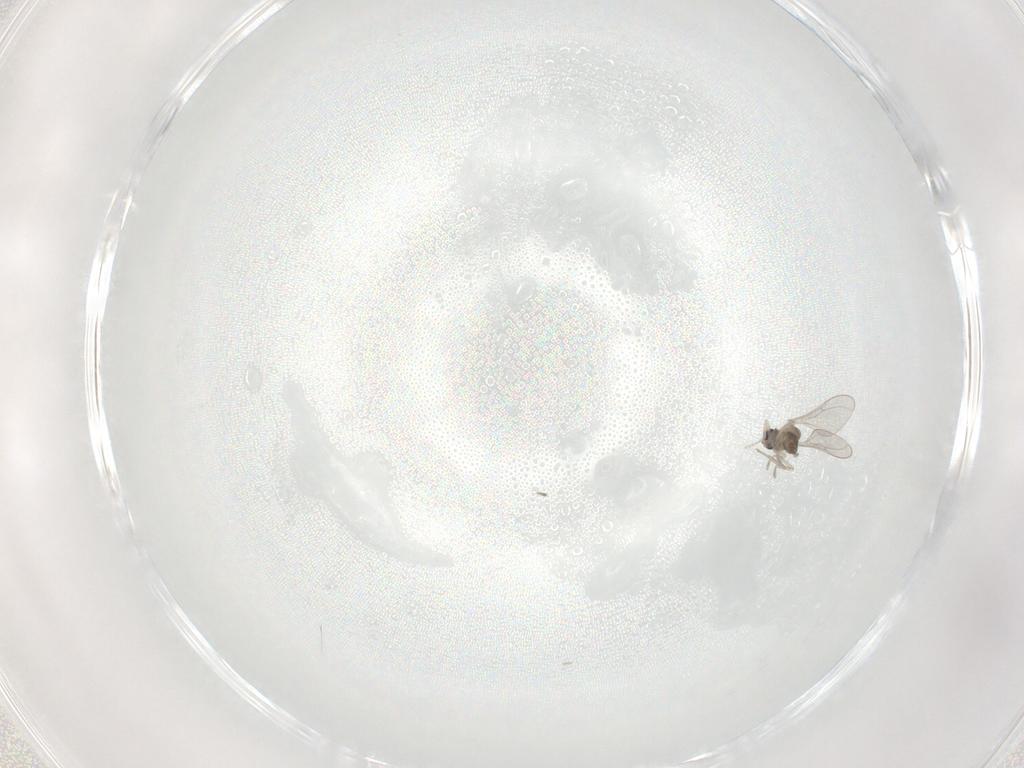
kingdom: Animalia
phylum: Arthropoda
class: Insecta
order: Diptera
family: Cecidomyiidae
